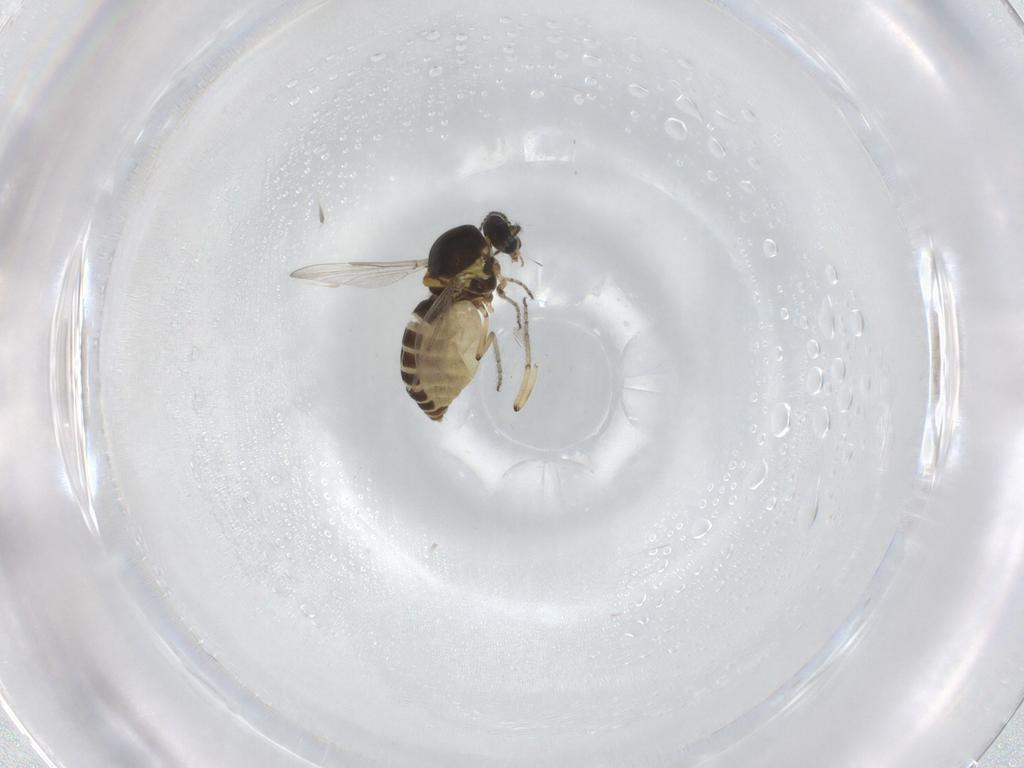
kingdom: Animalia
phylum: Arthropoda
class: Insecta
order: Diptera
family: Ceratopogonidae
